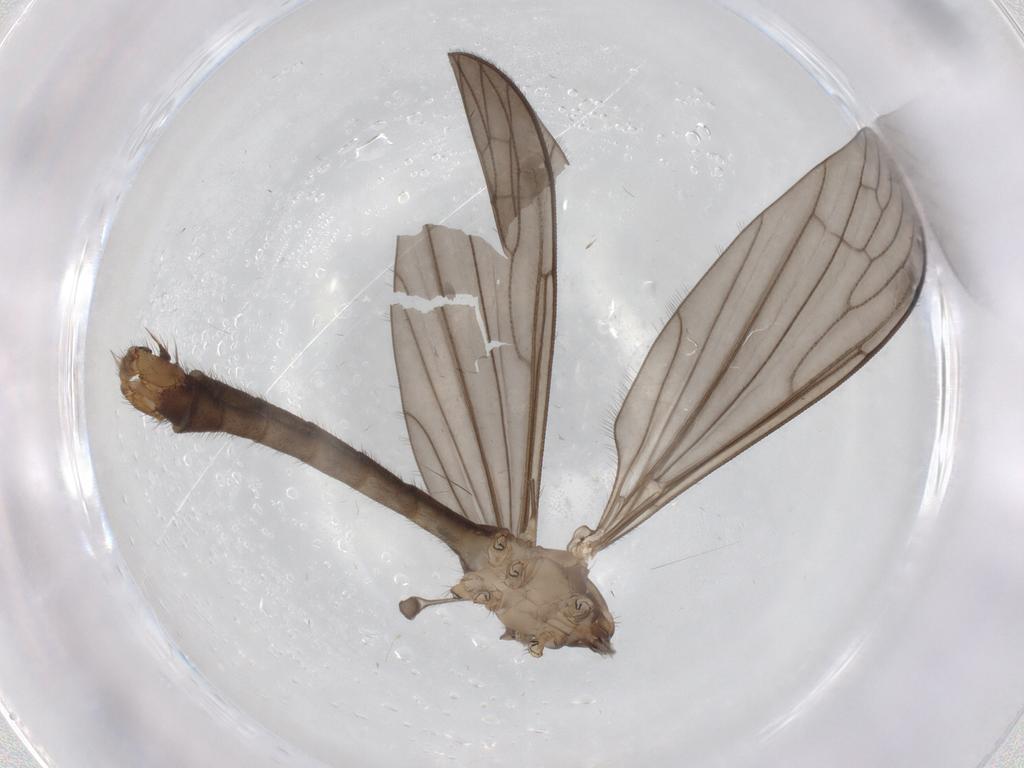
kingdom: Animalia
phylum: Arthropoda
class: Insecta
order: Diptera
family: Limoniidae
